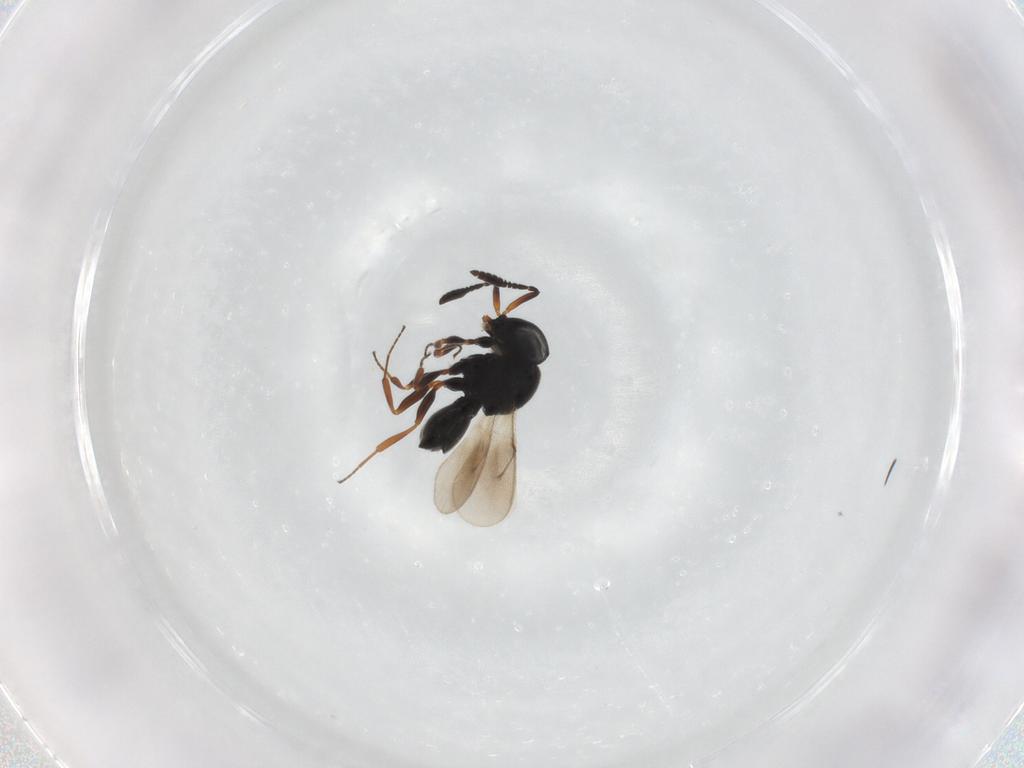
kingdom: Animalia
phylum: Arthropoda
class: Insecta
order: Hymenoptera
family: Scelionidae
